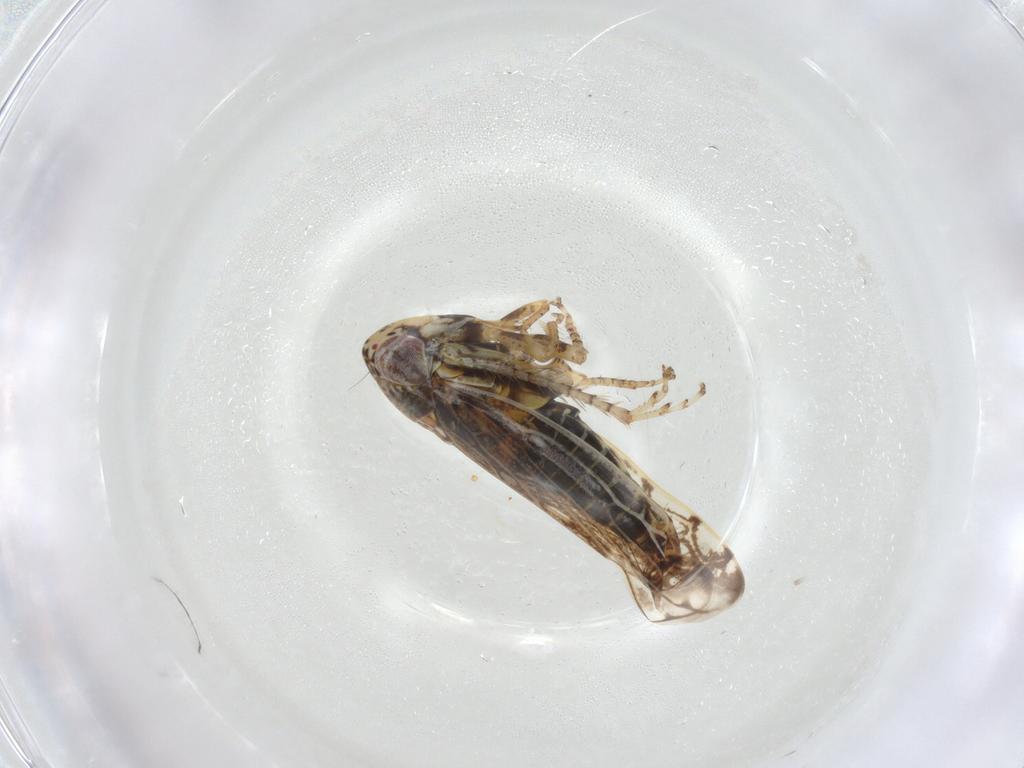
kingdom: Animalia
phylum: Arthropoda
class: Insecta
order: Hemiptera
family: Cicadellidae
